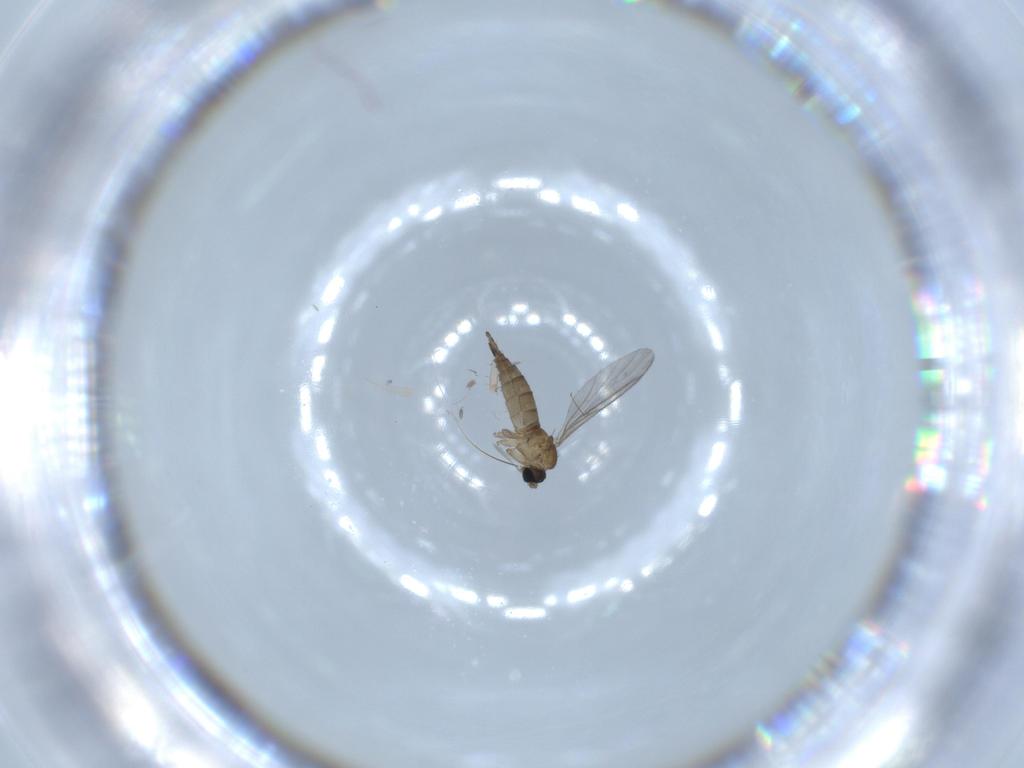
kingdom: Animalia
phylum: Arthropoda
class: Insecta
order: Diptera
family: Sciaridae
